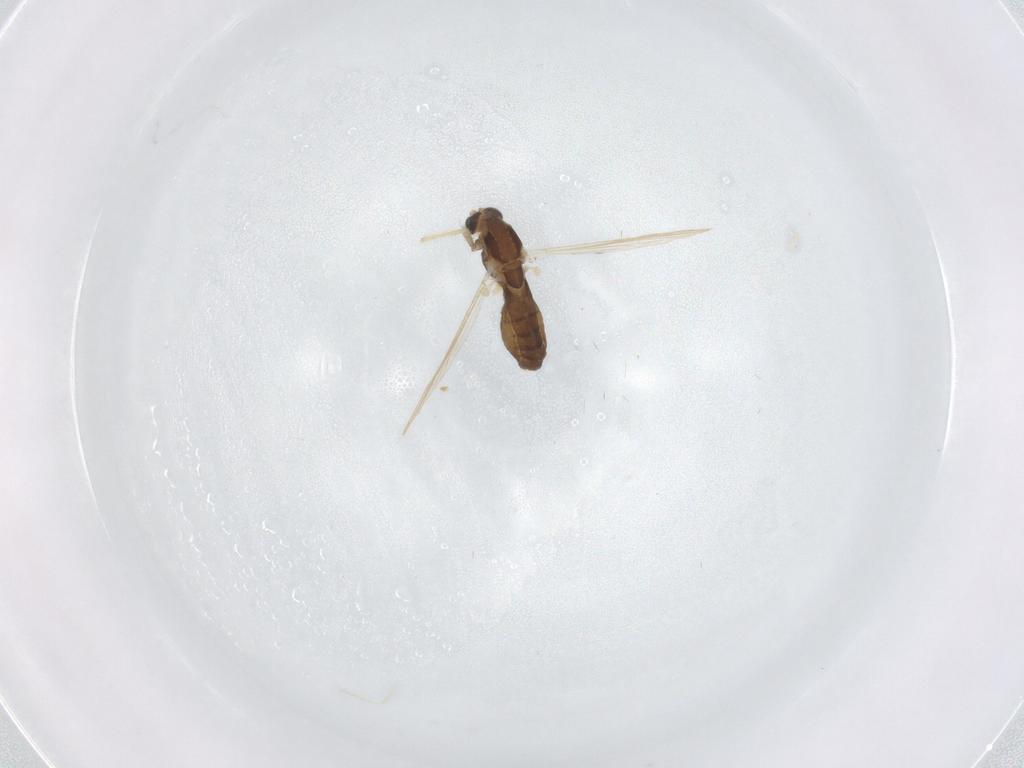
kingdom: Animalia
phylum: Arthropoda
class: Insecta
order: Diptera
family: Chironomidae
